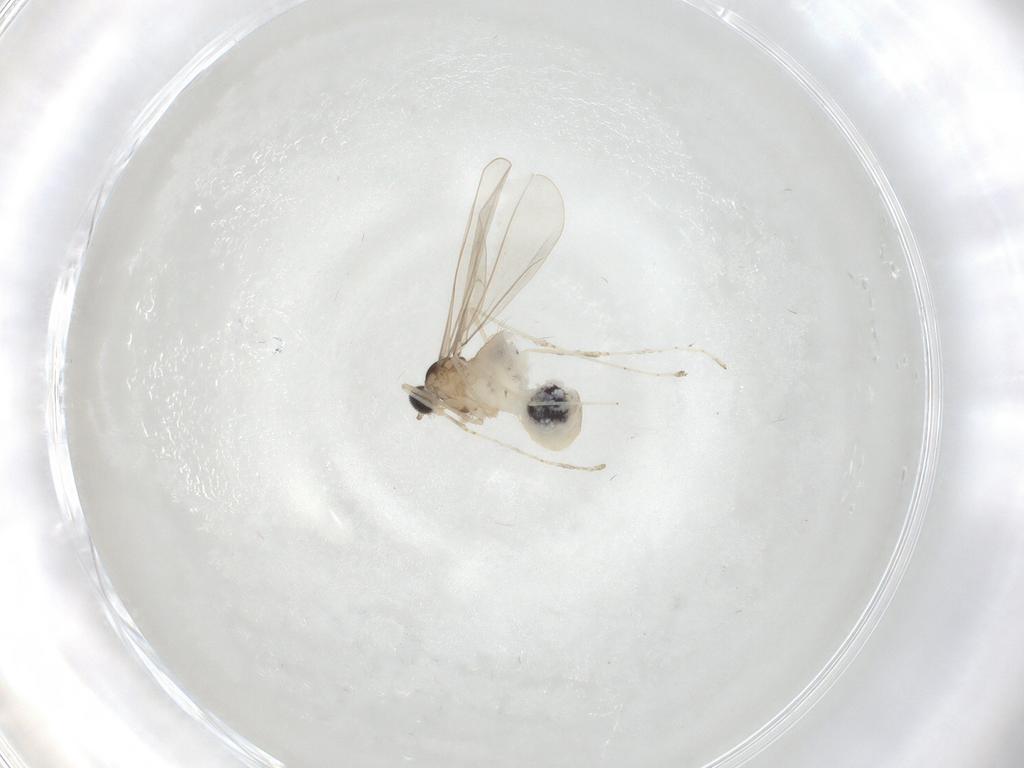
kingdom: Animalia
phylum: Arthropoda
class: Insecta
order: Diptera
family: Cecidomyiidae
